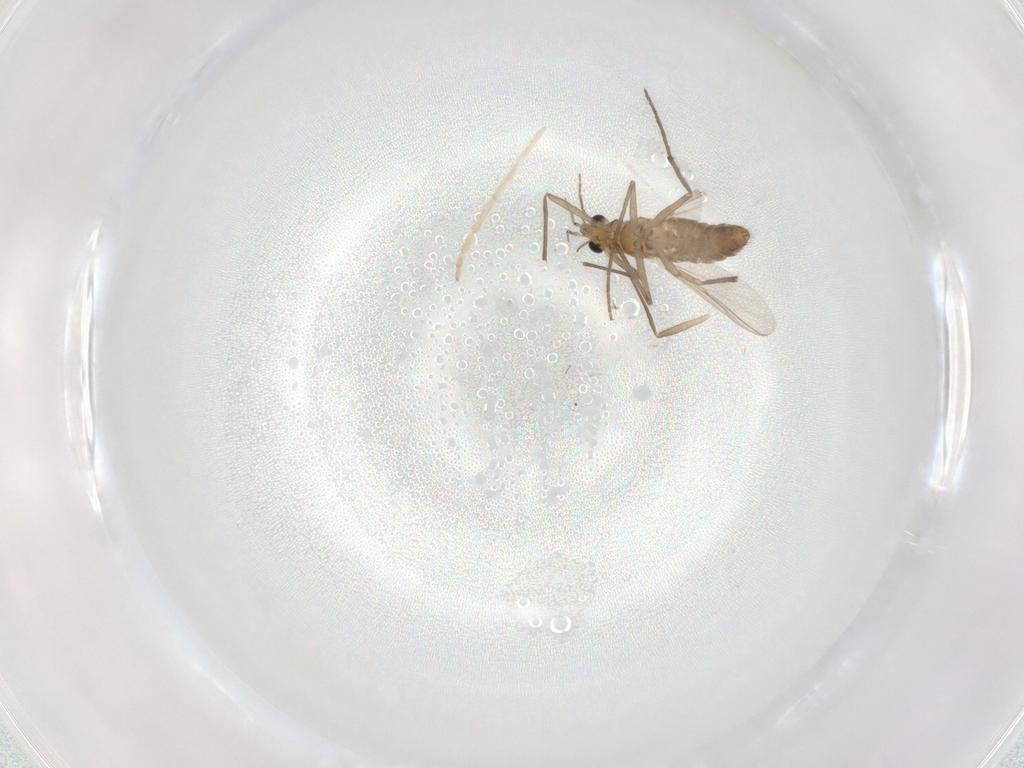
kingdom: Animalia
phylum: Arthropoda
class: Insecta
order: Diptera
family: Chironomidae
